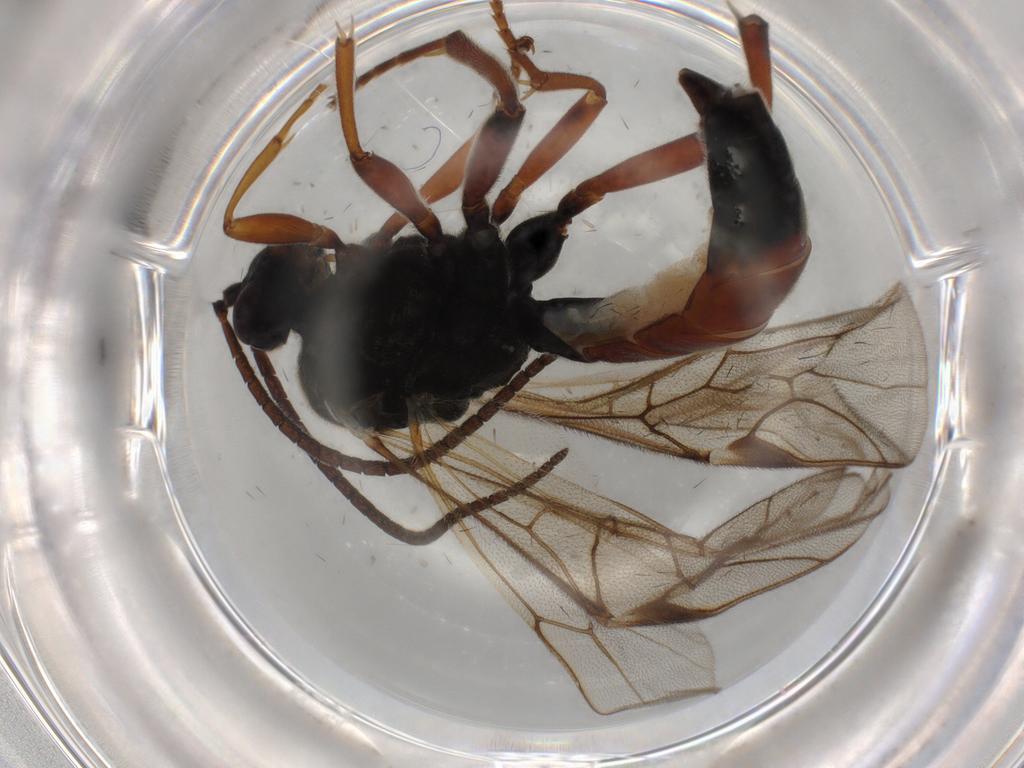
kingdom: Animalia
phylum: Arthropoda
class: Insecta
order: Hymenoptera
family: Ichneumonidae
